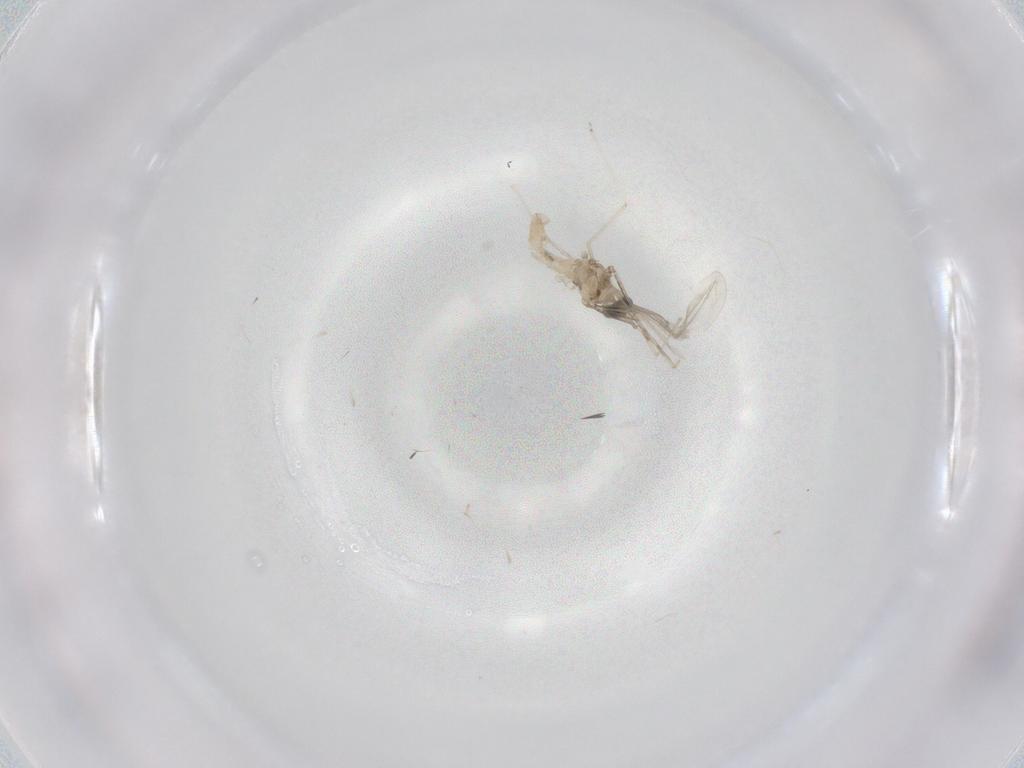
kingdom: Animalia
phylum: Arthropoda
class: Insecta
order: Diptera
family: Cecidomyiidae
